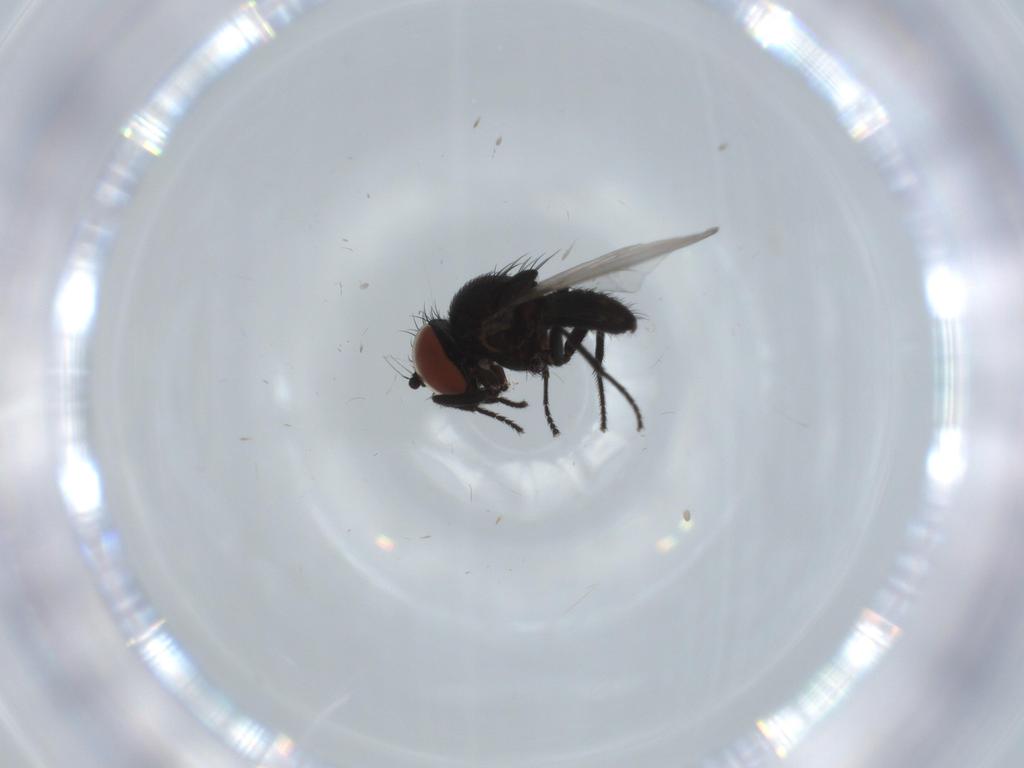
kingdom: Animalia
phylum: Arthropoda
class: Insecta
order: Diptera
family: Milichiidae
